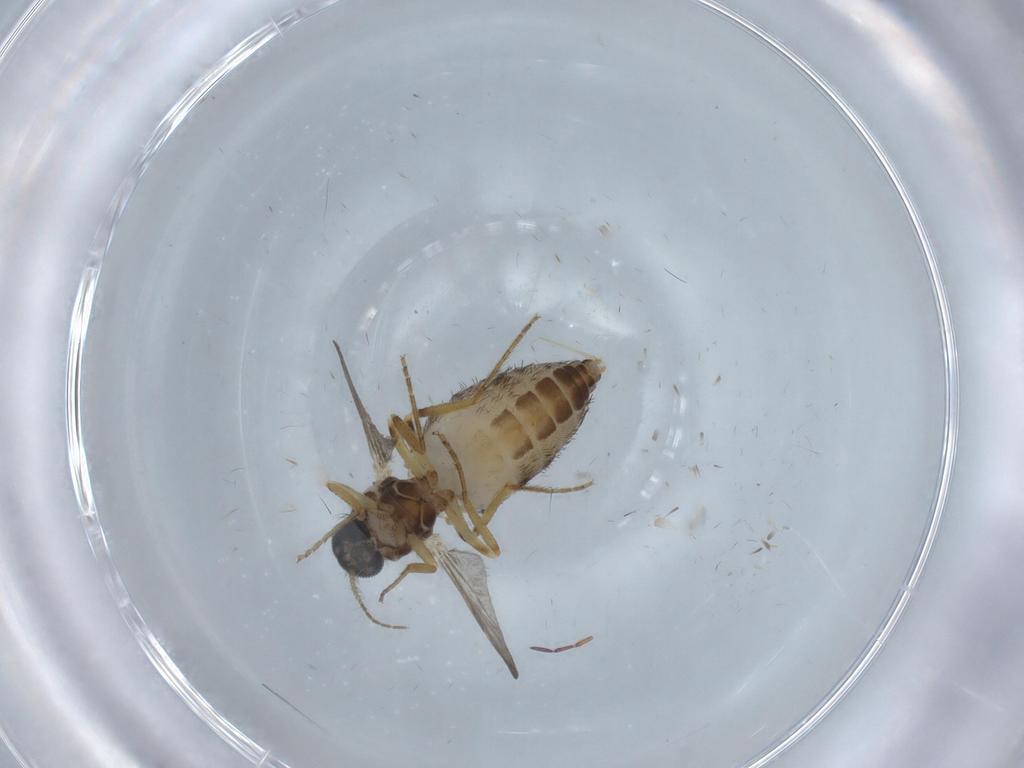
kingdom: Animalia
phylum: Arthropoda
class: Insecta
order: Diptera
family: Ceratopogonidae
